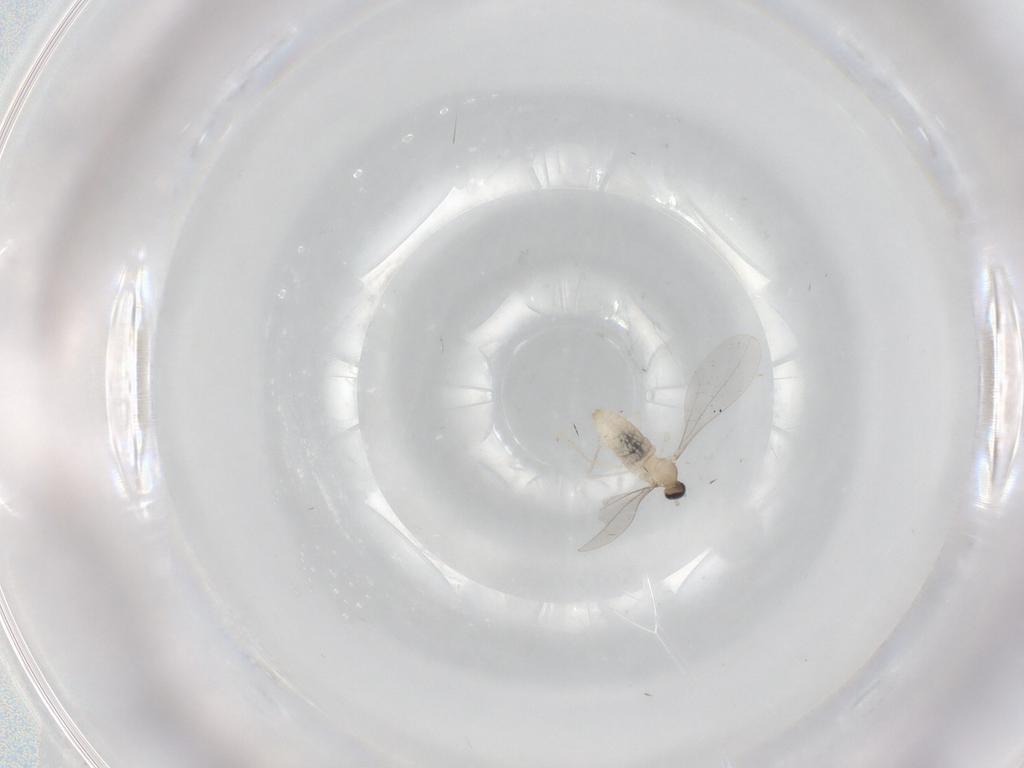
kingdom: Animalia
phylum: Arthropoda
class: Insecta
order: Diptera
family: Cecidomyiidae
